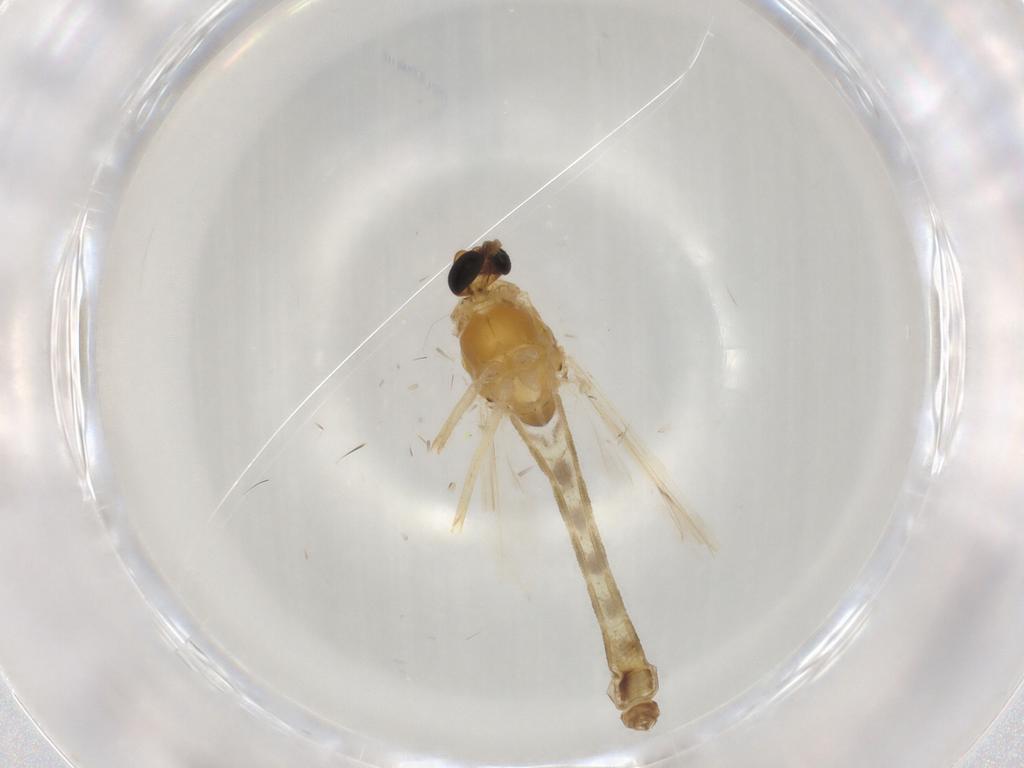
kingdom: Animalia
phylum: Arthropoda
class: Insecta
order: Diptera
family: Chironomidae
